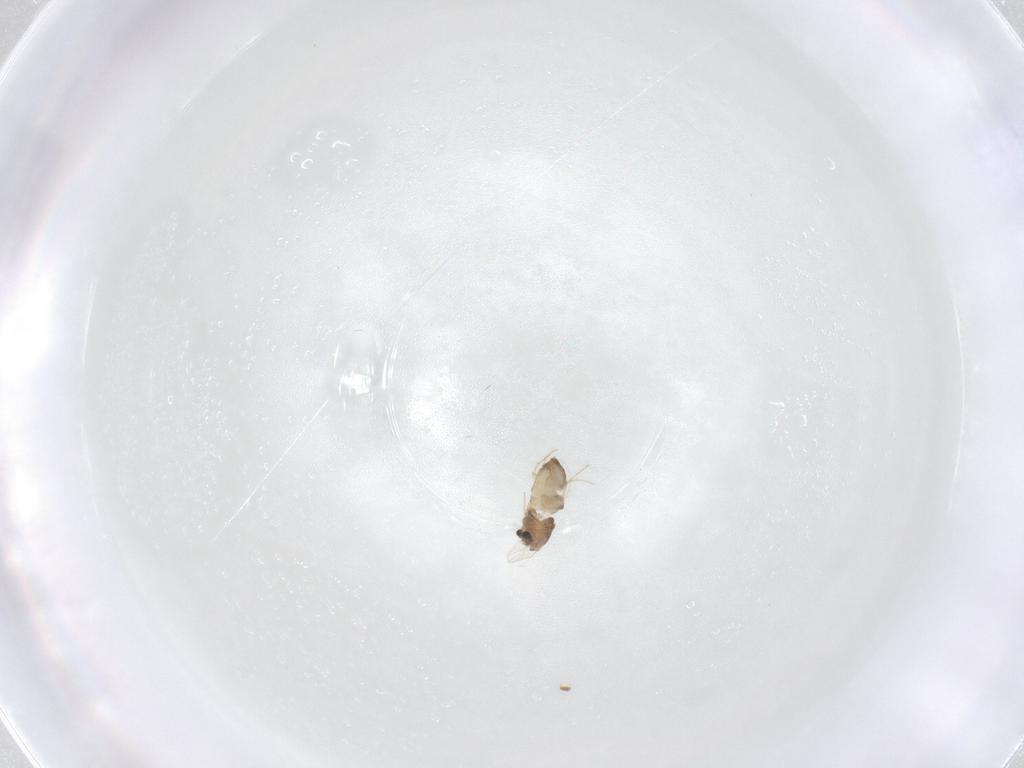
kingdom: Animalia
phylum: Arthropoda
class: Insecta
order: Diptera
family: Chironomidae
